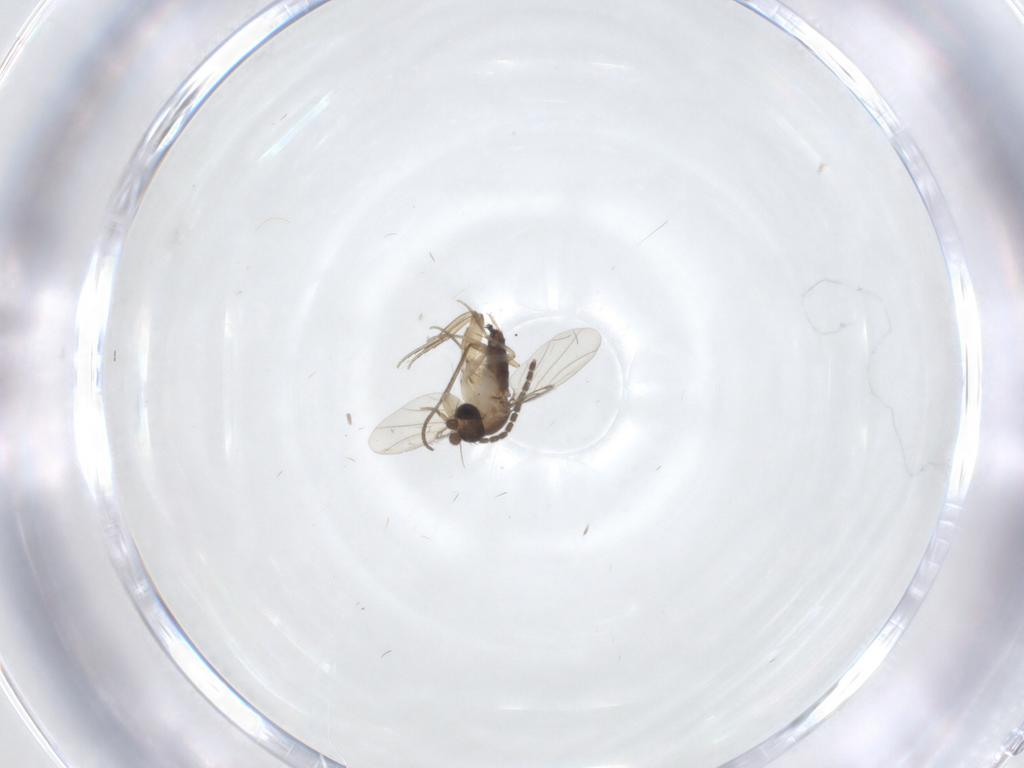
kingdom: Animalia
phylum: Arthropoda
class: Insecta
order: Diptera
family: Phoridae
